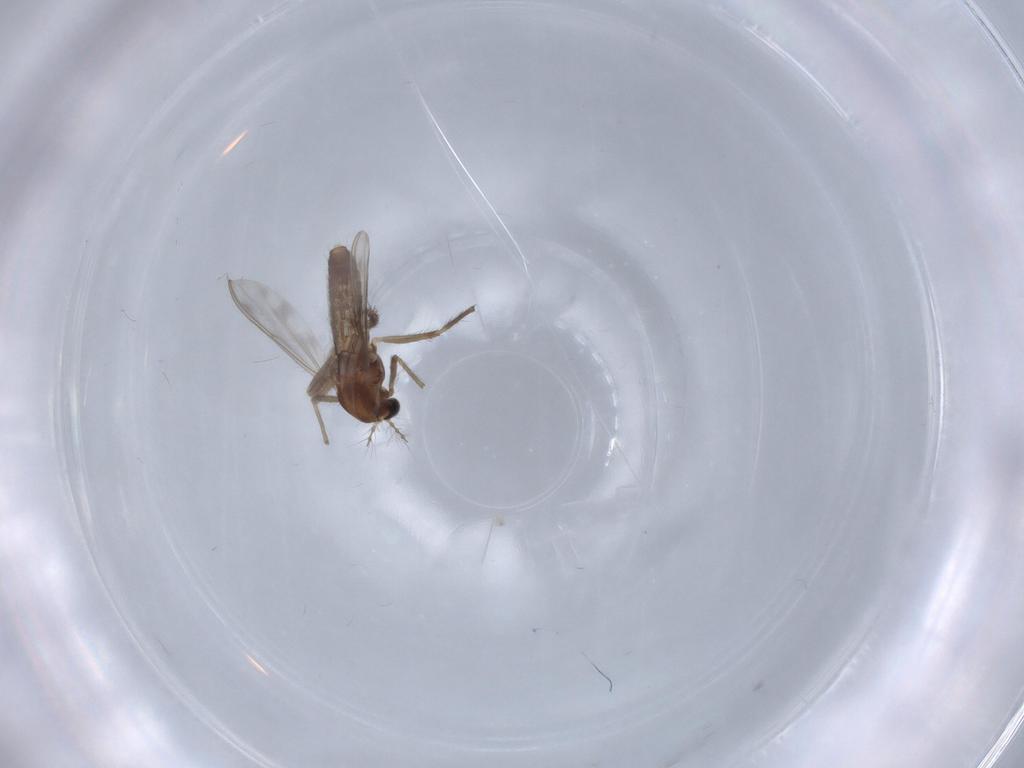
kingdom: Animalia
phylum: Arthropoda
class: Insecta
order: Diptera
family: Chironomidae
